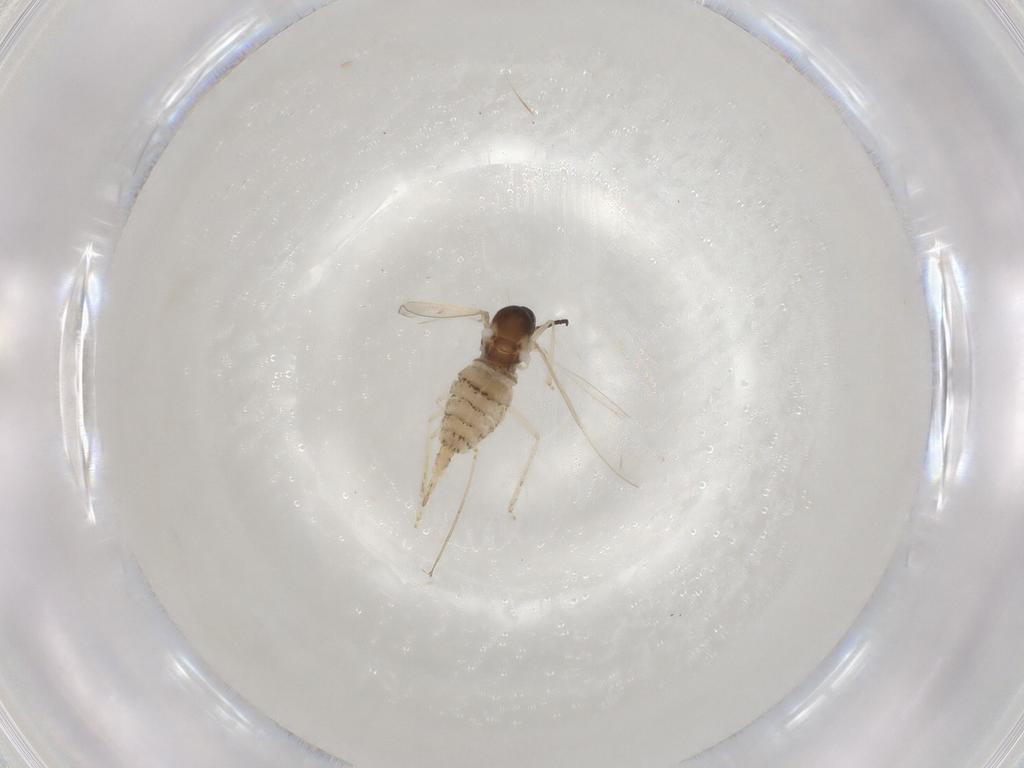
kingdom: Animalia
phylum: Arthropoda
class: Insecta
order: Diptera
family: Cecidomyiidae
